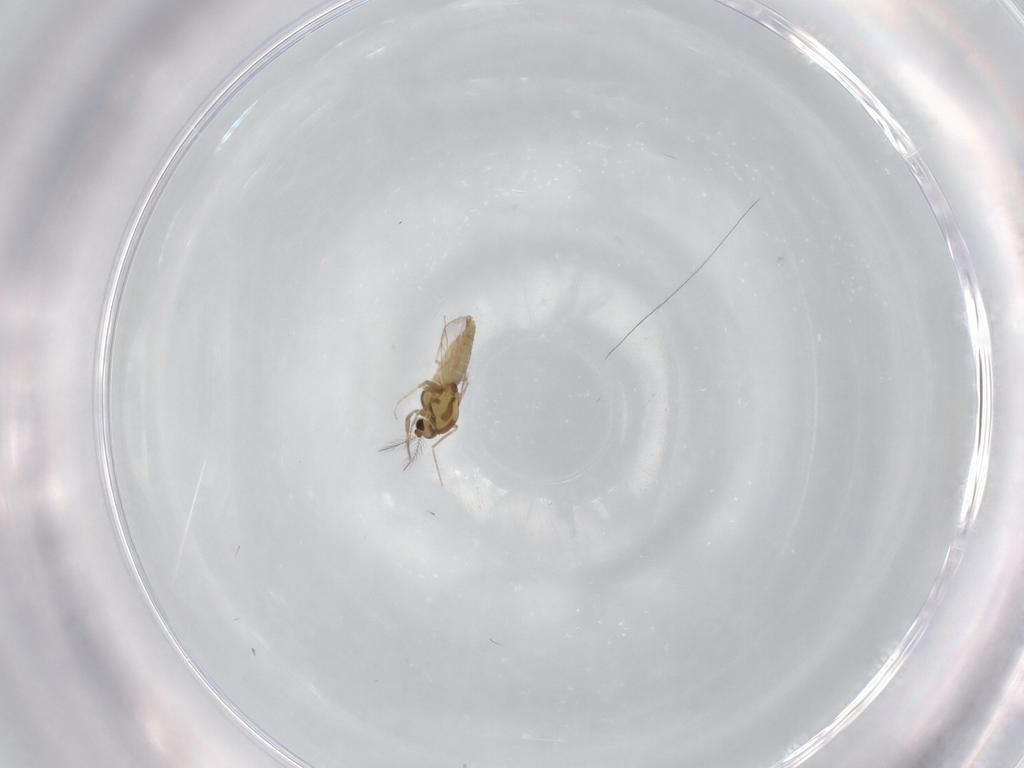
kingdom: Animalia
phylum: Arthropoda
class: Insecta
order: Diptera
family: Chironomidae
